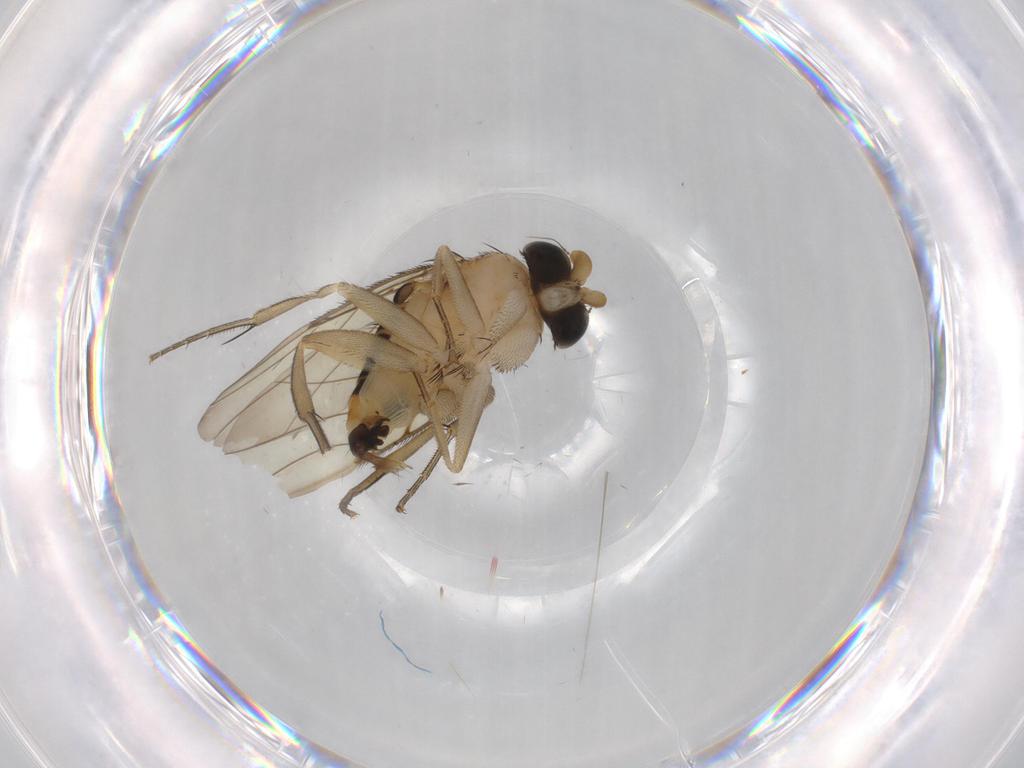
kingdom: Animalia
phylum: Arthropoda
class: Insecta
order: Diptera
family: Limoniidae
